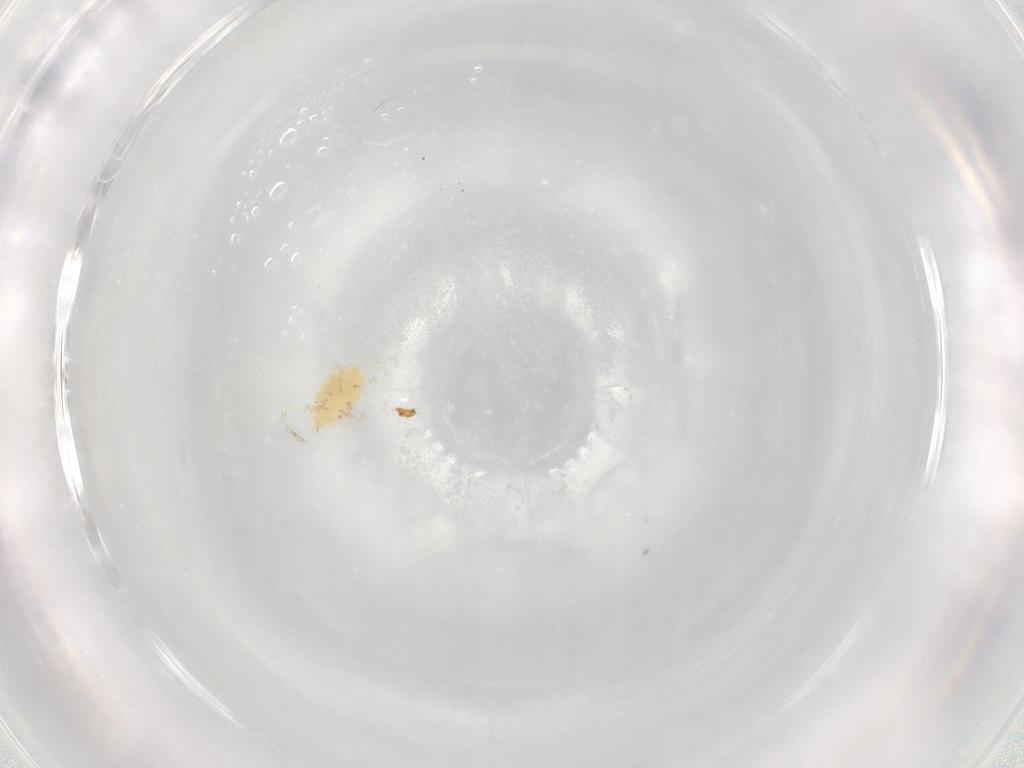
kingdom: Animalia
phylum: Arthropoda
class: Arachnida
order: Trombidiformes
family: Smarididae
